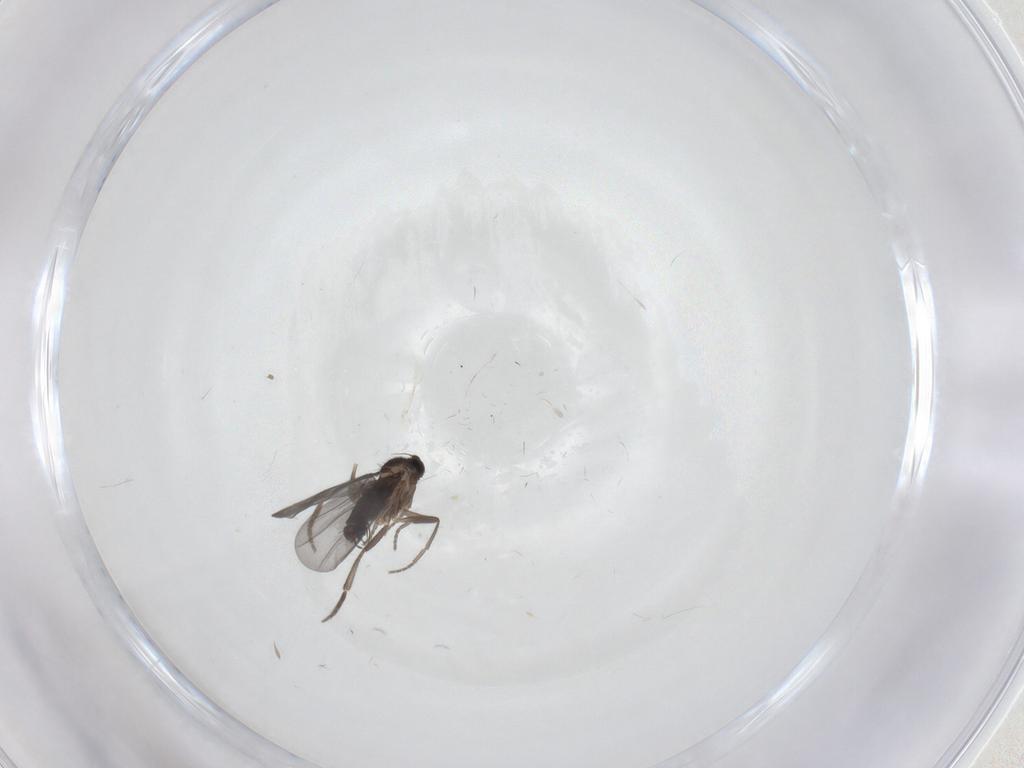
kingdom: Animalia
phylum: Arthropoda
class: Insecta
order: Diptera
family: Phoridae
